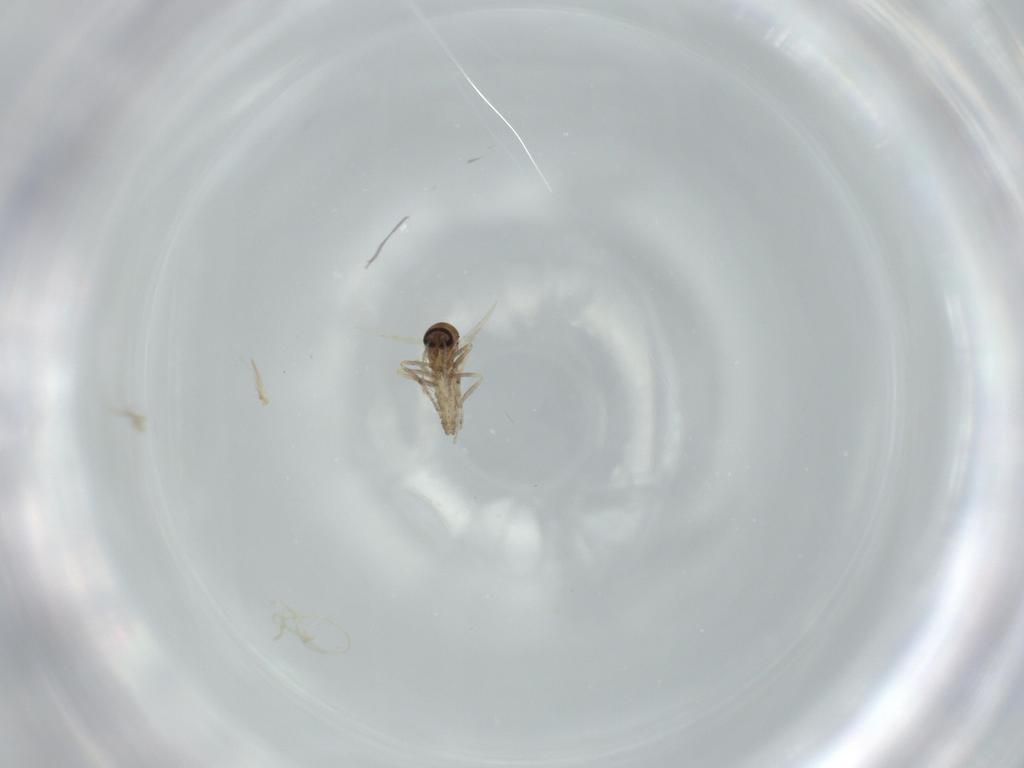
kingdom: Animalia
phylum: Arthropoda
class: Insecta
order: Diptera
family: Ceratopogonidae
